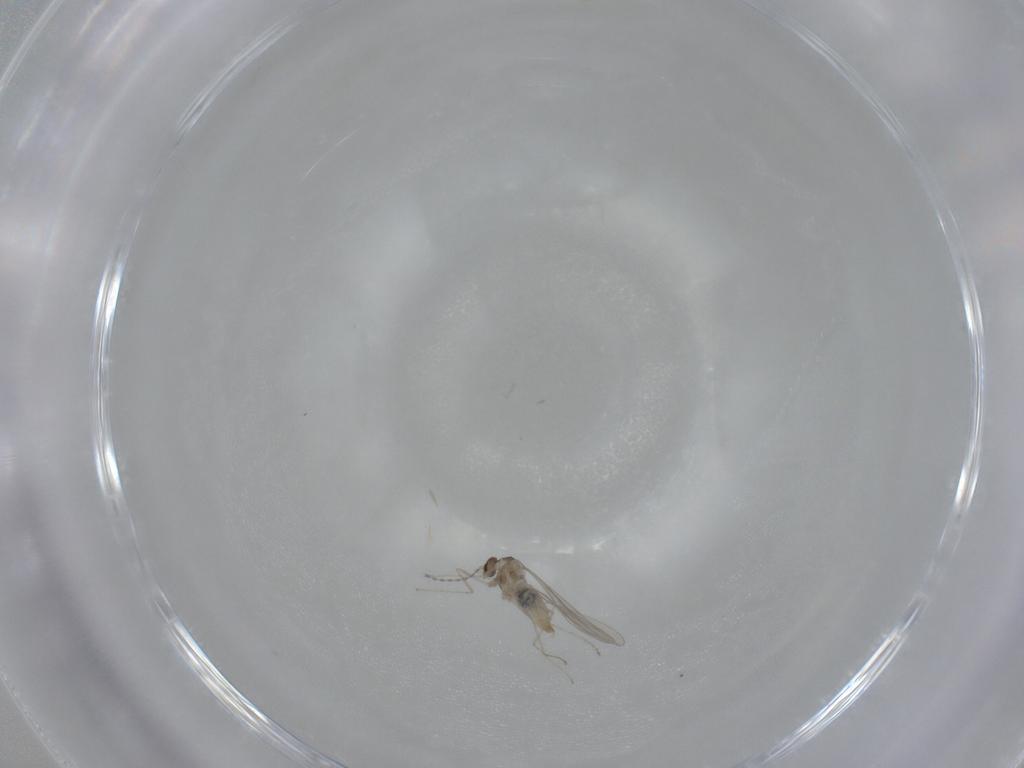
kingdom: Animalia
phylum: Arthropoda
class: Insecta
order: Diptera
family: Cecidomyiidae
